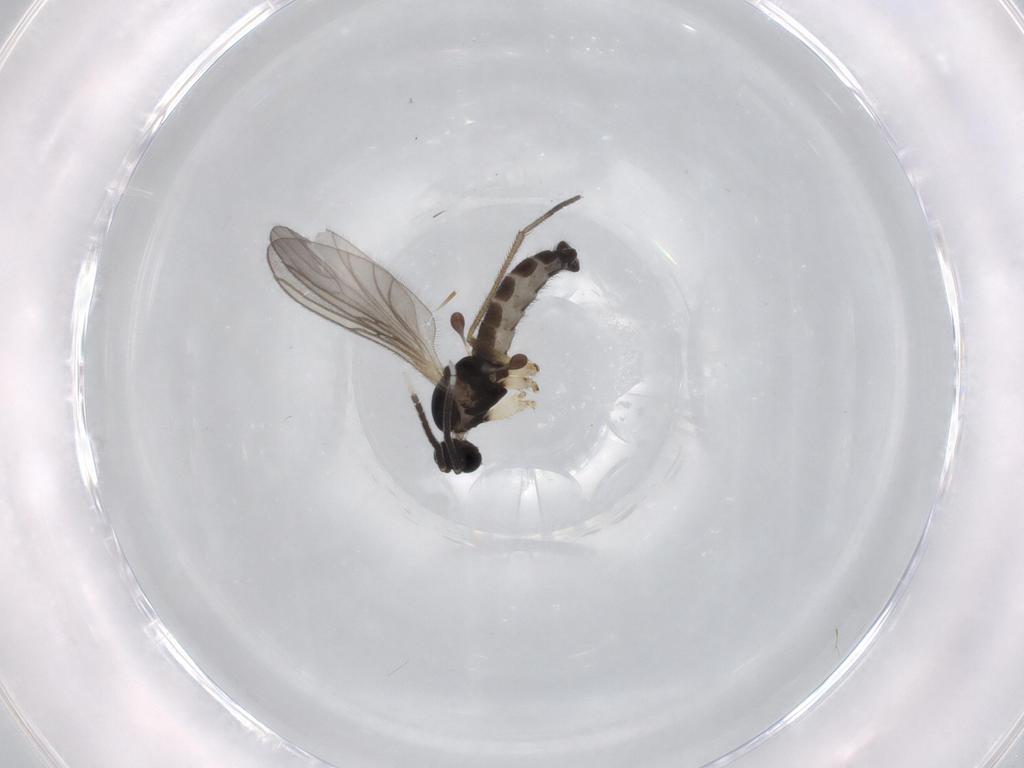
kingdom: Animalia
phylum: Arthropoda
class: Insecta
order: Diptera
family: Sciaridae
